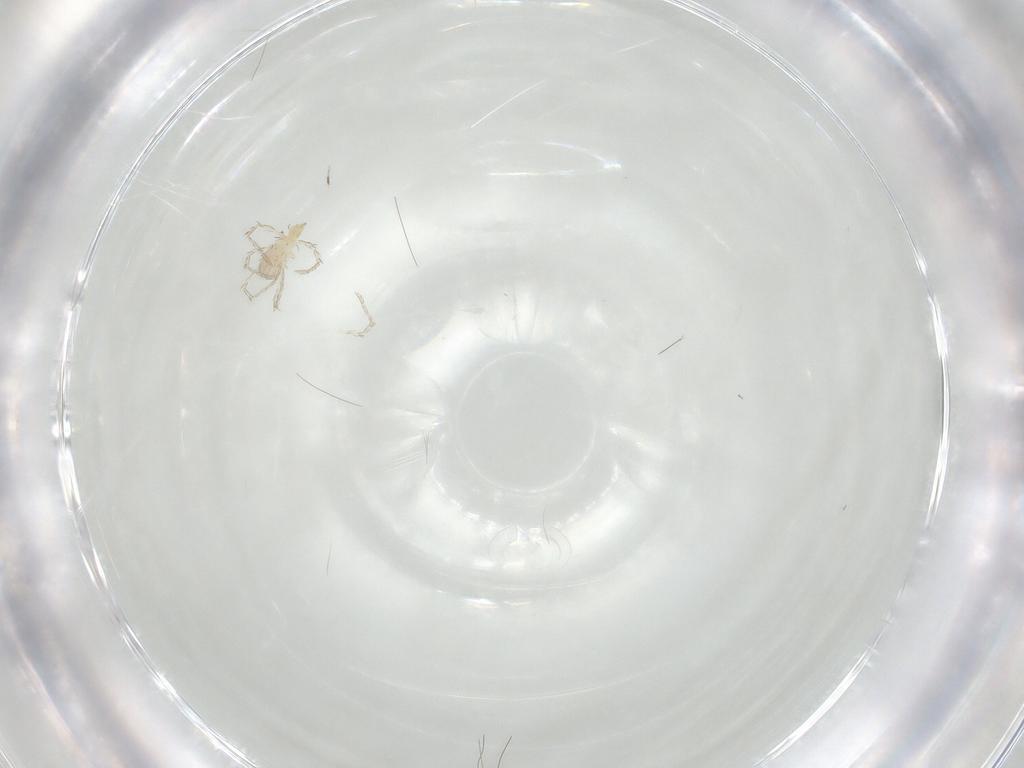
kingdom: Animalia
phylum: Arthropoda
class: Arachnida
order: Trombidiformes
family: Erythraeidae
